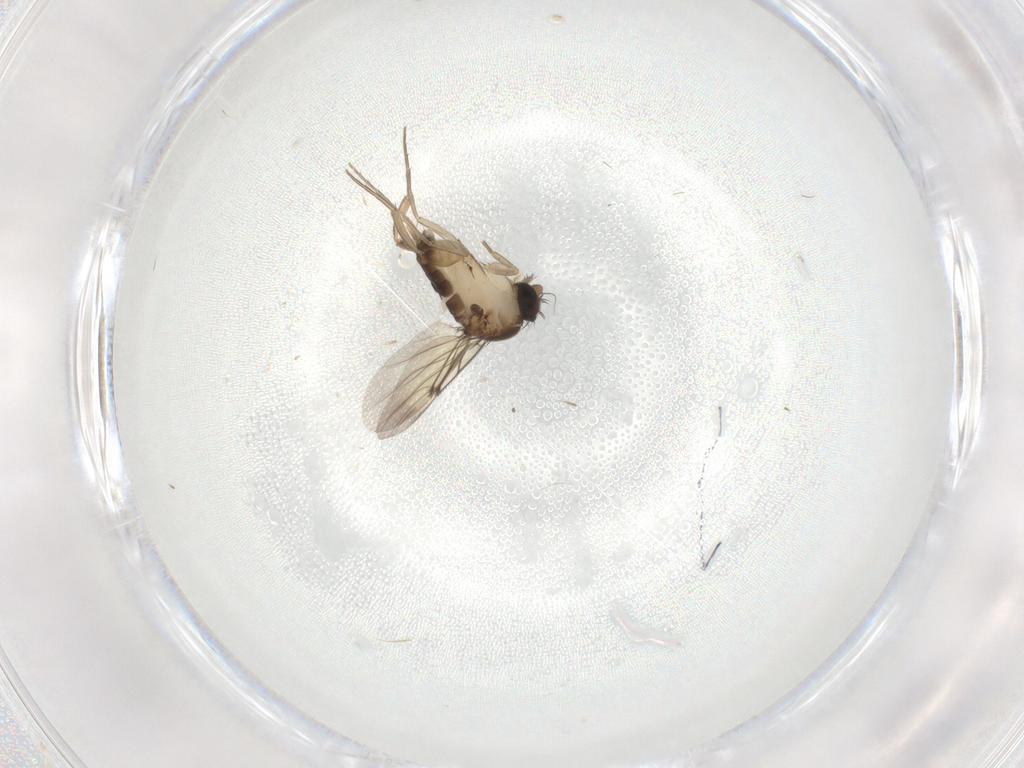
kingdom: Animalia
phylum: Arthropoda
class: Insecta
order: Diptera
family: Phoridae
